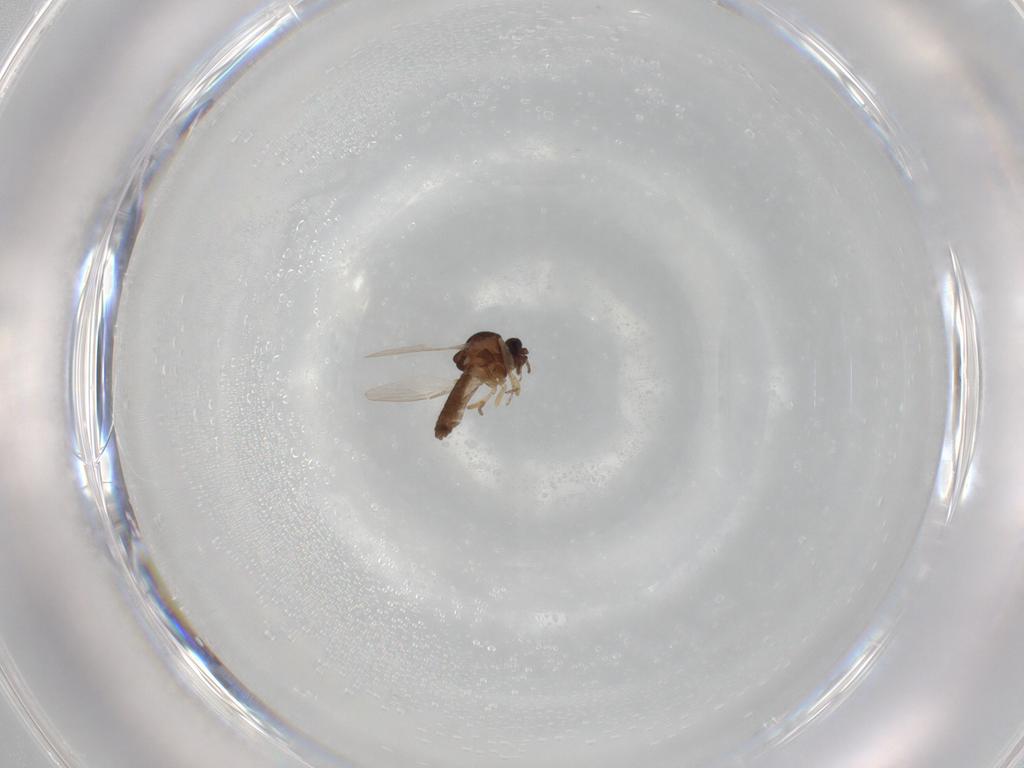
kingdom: Animalia
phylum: Arthropoda
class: Insecta
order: Diptera
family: Ceratopogonidae
